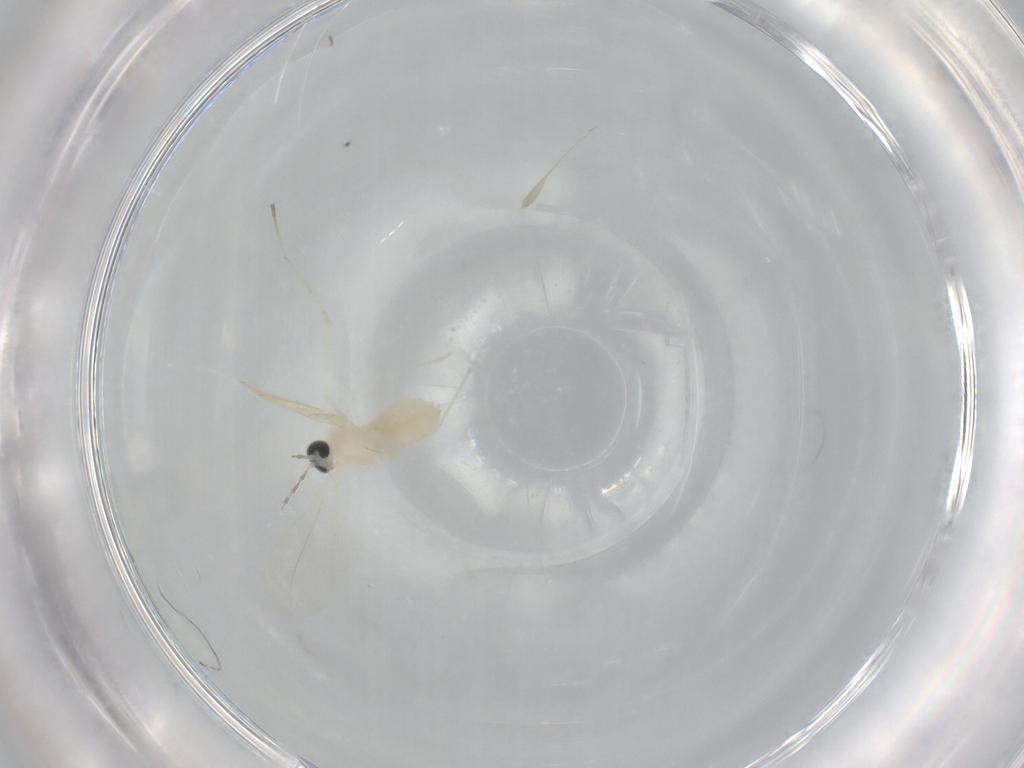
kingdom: Animalia
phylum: Arthropoda
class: Insecta
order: Diptera
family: Cecidomyiidae
